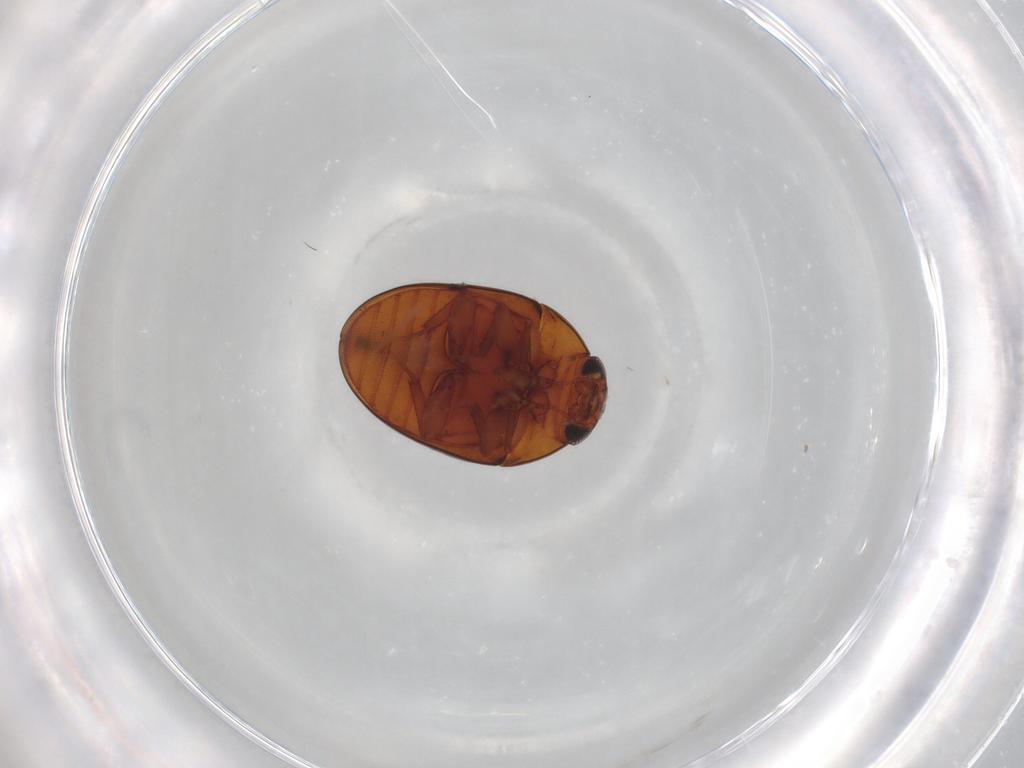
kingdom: Animalia
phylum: Arthropoda
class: Insecta
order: Coleoptera
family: Phalacridae
